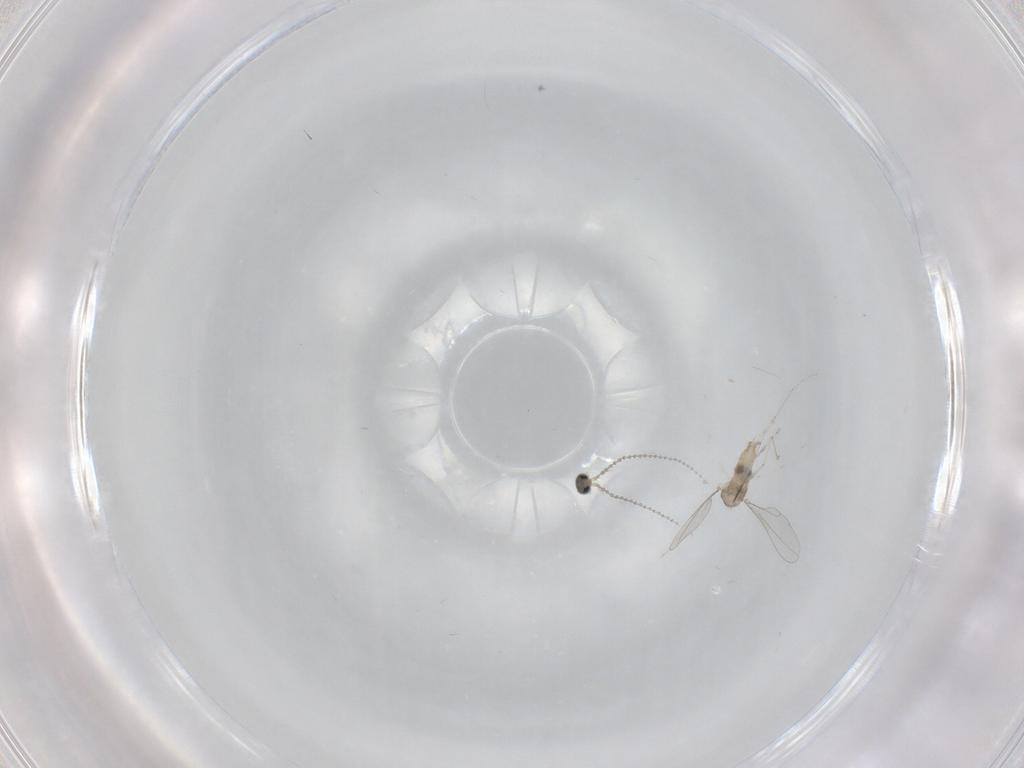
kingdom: Animalia
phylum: Arthropoda
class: Insecta
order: Diptera
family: Cecidomyiidae
